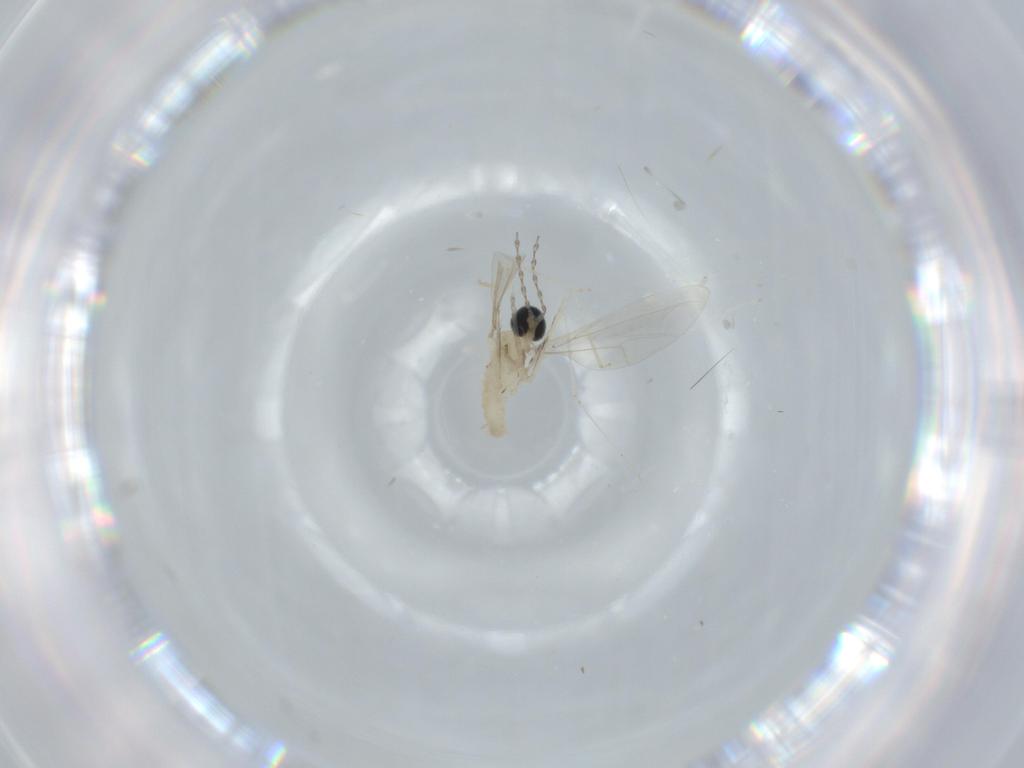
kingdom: Animalia
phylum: Arthropoda
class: Insecta
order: Diptera
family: Cecidomyiidae
